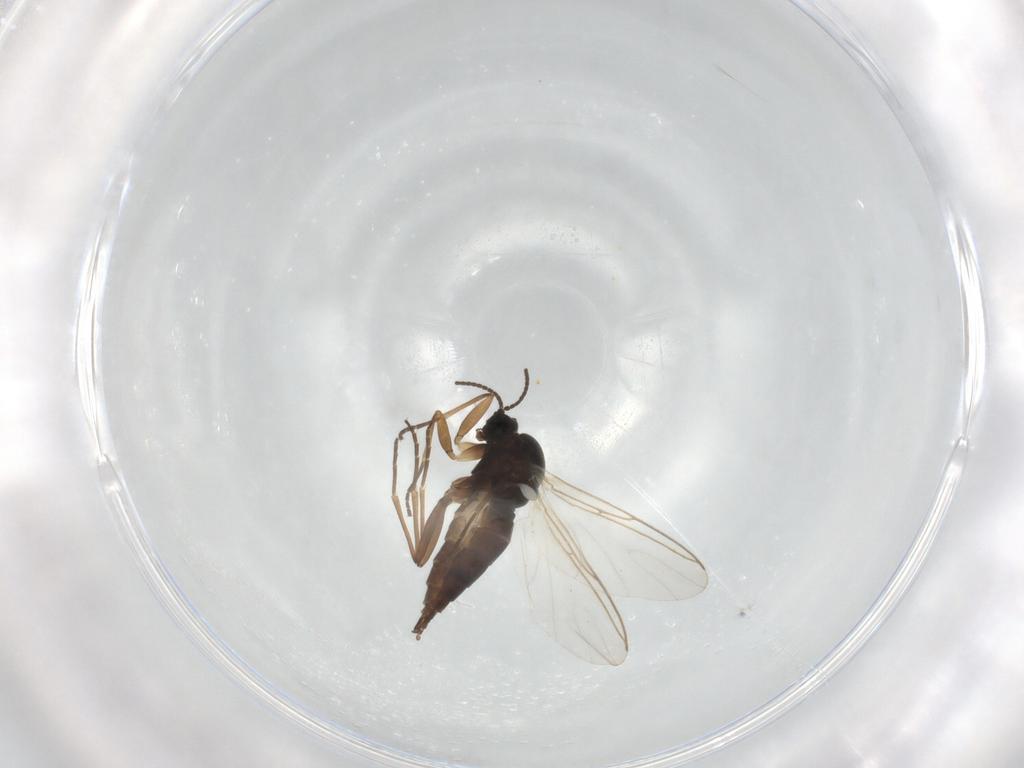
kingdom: Animalia
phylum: Arthropoda
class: Insecta
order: Diptera
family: Sciaridae
